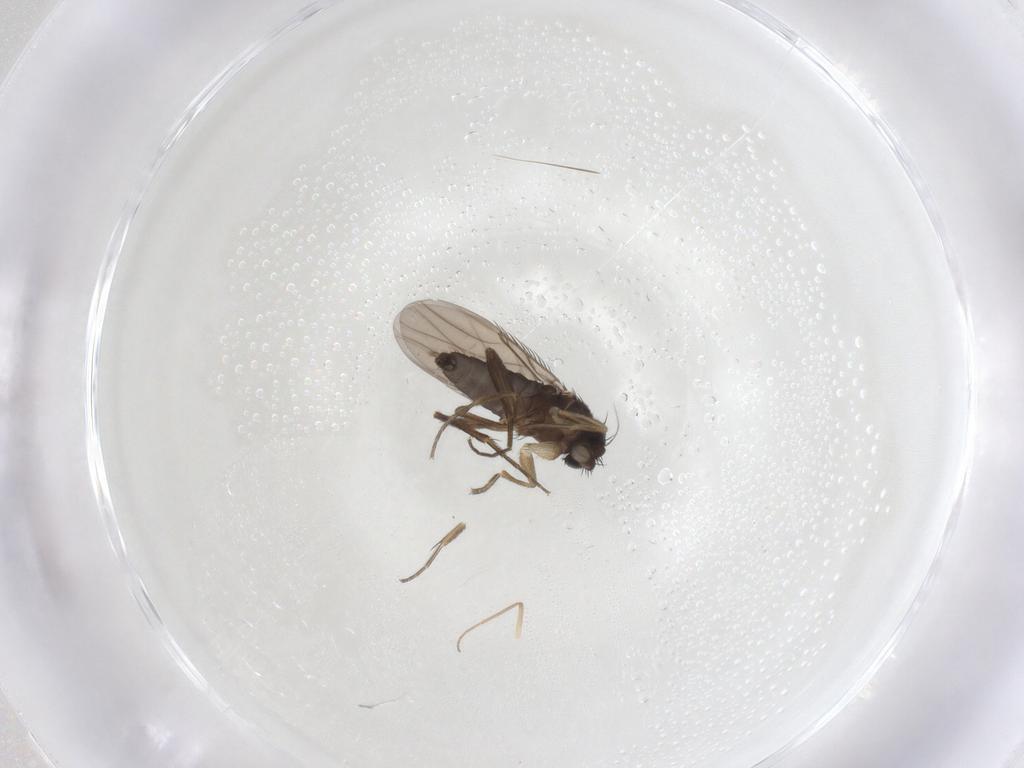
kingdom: Animalia
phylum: Arthropoda
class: Insecta
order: Diptera
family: Phoridae
